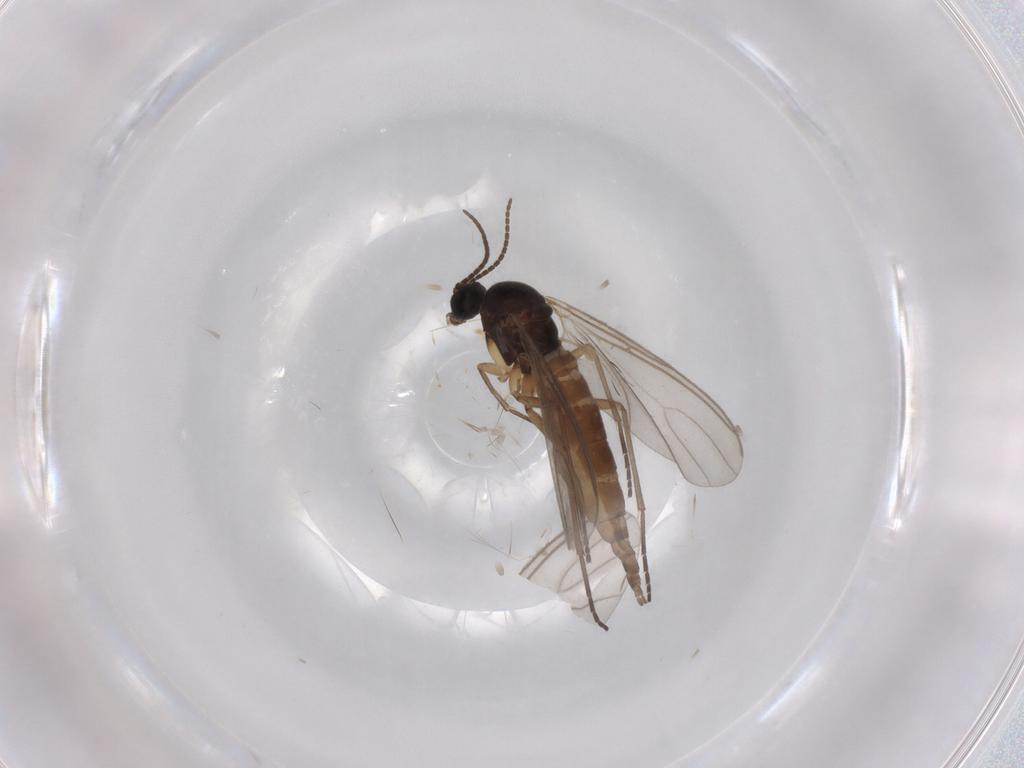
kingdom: Animalia
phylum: Arthropoda
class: Insecta
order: Diptera
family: Sciaridae
